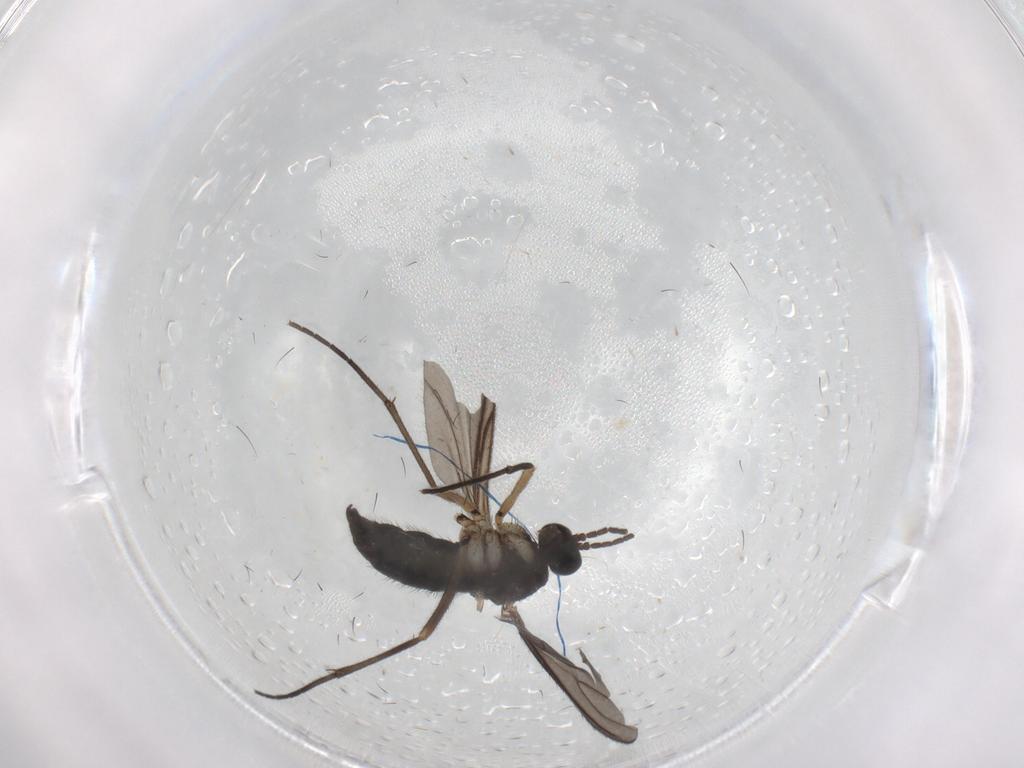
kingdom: Animalia
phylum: Arthropoda
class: Insecta
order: Diptera
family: Sciaridae
